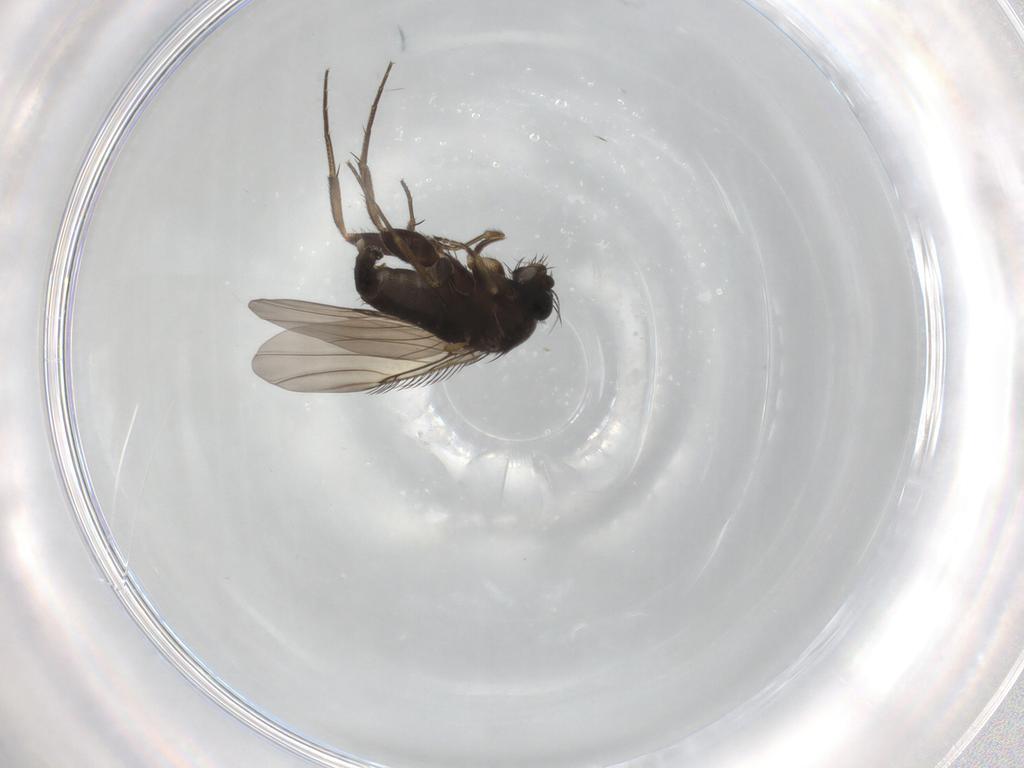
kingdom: Animalia
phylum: Arthropoda
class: Insecta
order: Diptera
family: Phoridae
